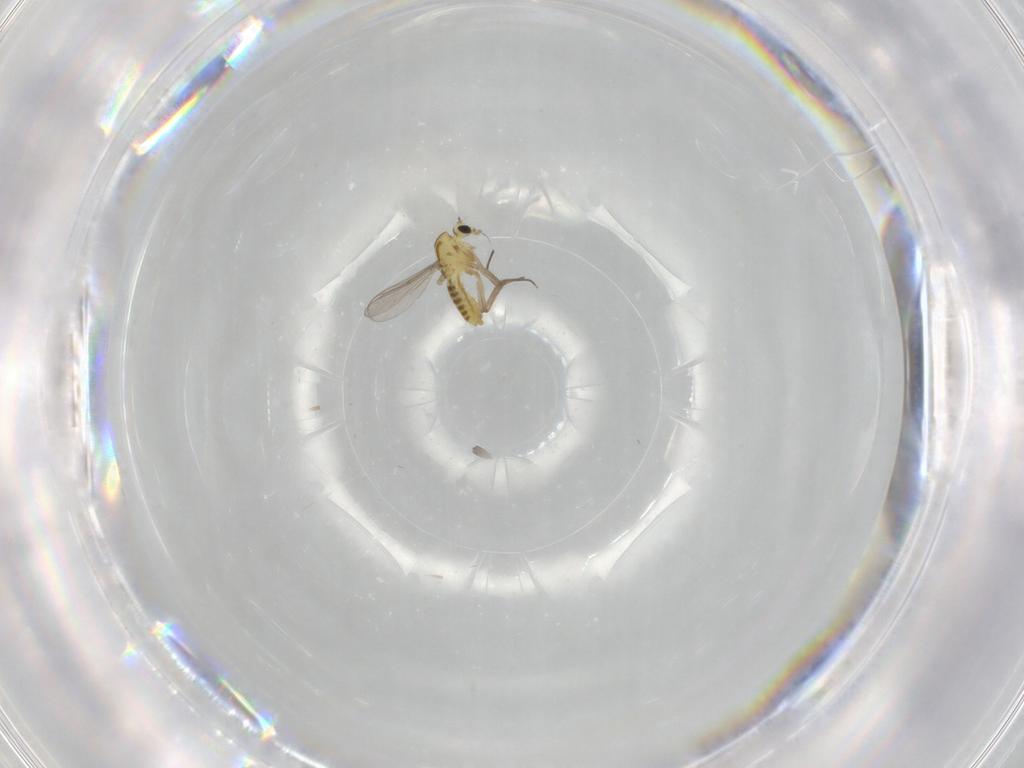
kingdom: Animalia
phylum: Arthropoda
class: Insecta
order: Diptera
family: Chironomidae
